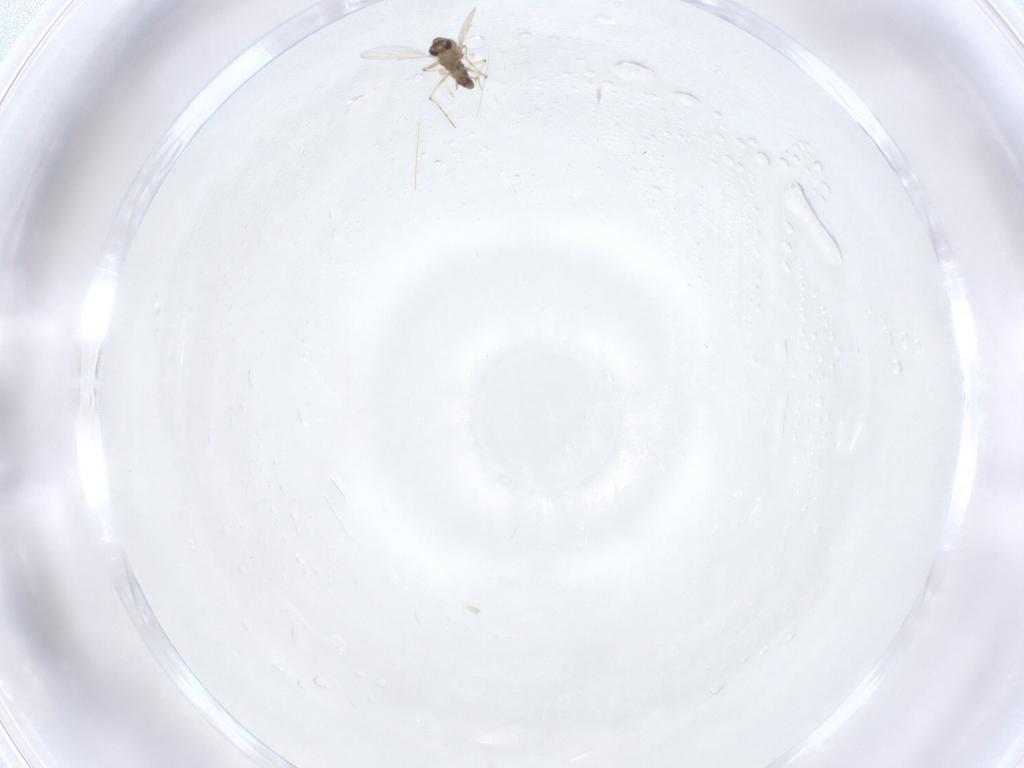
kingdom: Animalia
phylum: Arthropoda
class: Insecta
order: Diptera
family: Chironomidae
